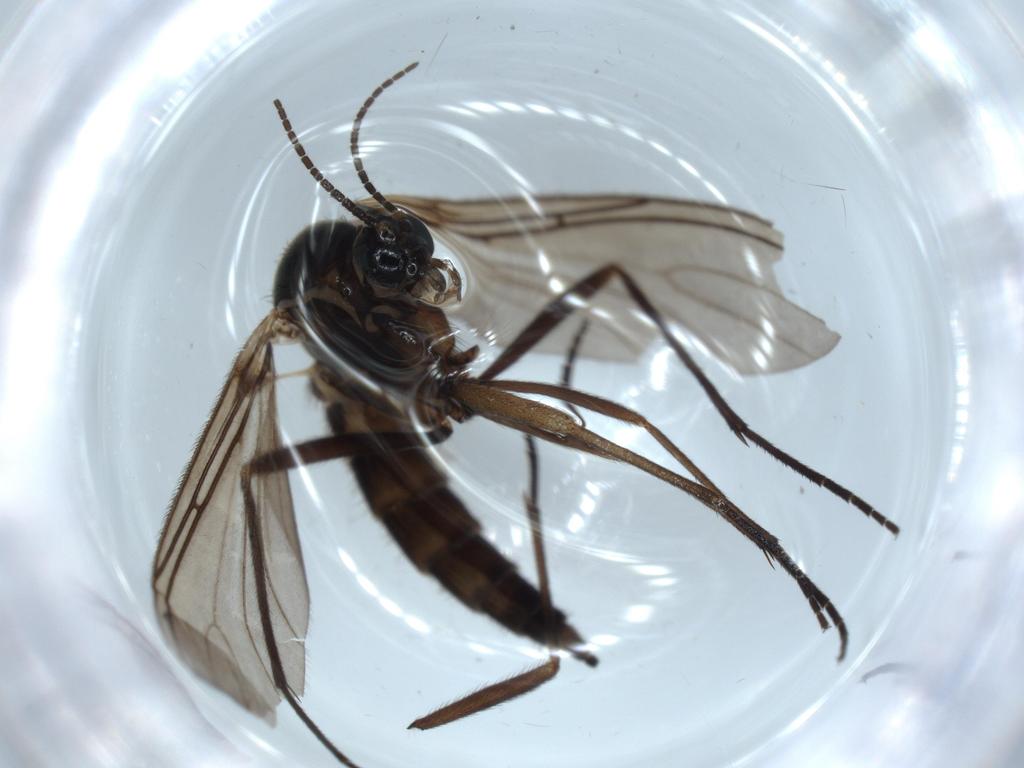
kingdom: Animalia
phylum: Arthropoda
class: Insecta
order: Diptera
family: Sciaridae
